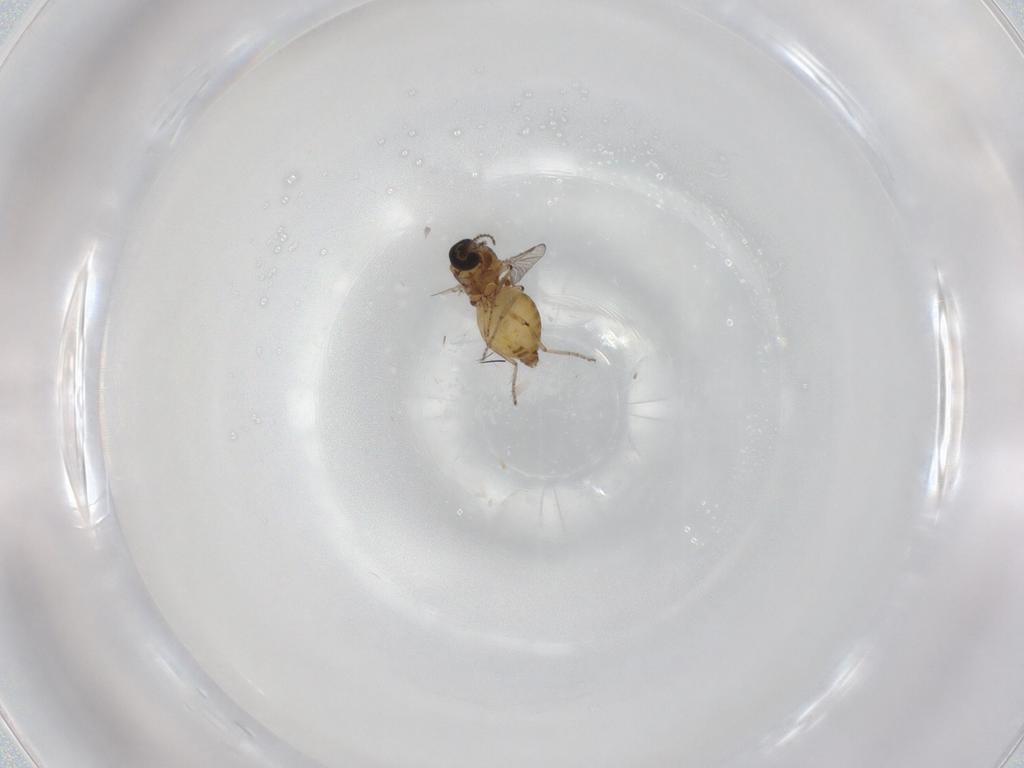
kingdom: Animalia
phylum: Arthropoda
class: Insecta
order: Diptera
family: Ceratopogonidae
